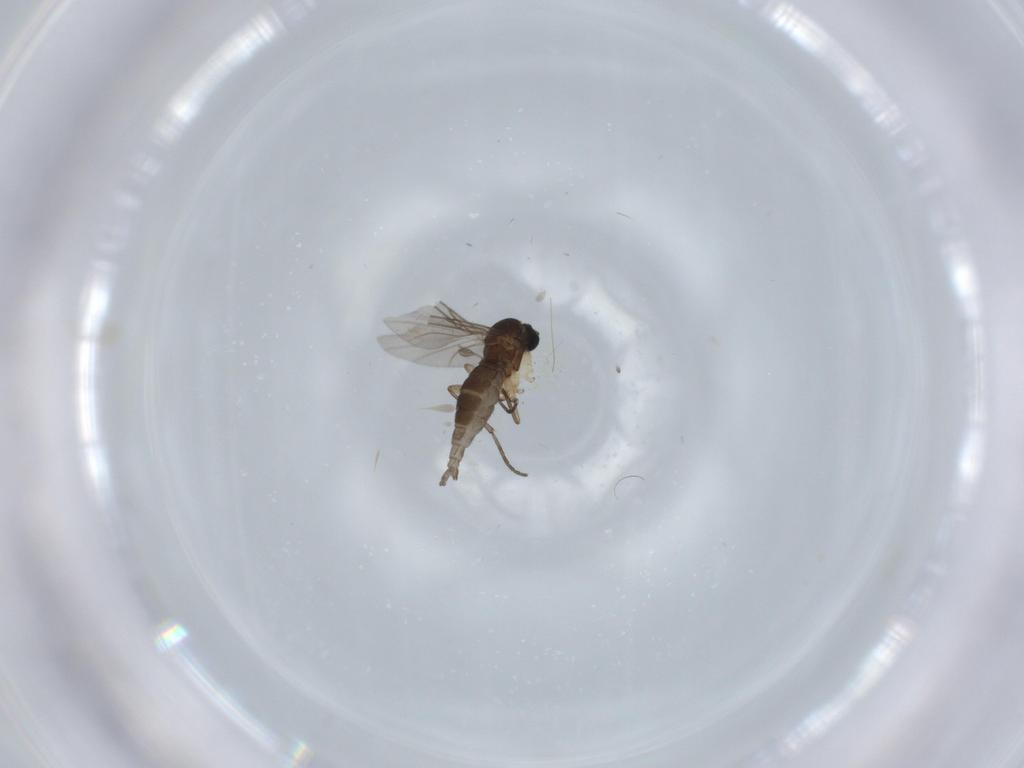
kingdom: Animalia
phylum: Arthropoda
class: Insecta
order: Diptera
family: Sciaridae
